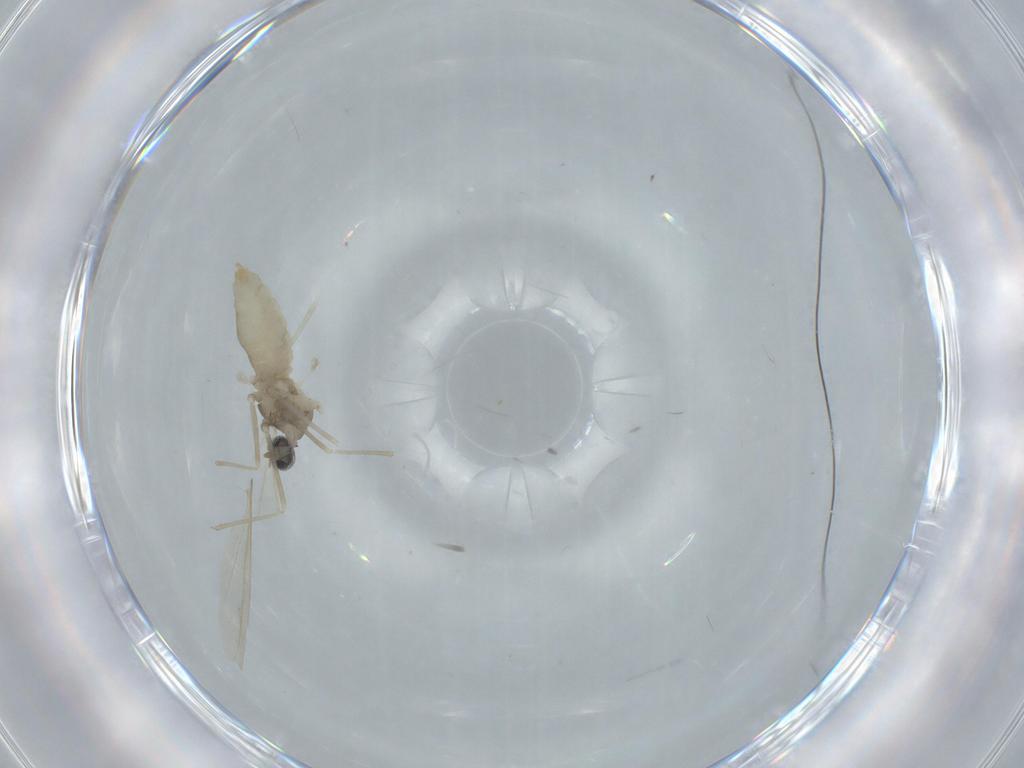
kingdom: Animalia
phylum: Arthropoda
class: Insecta
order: Diptera
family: Cecidomyiidae
